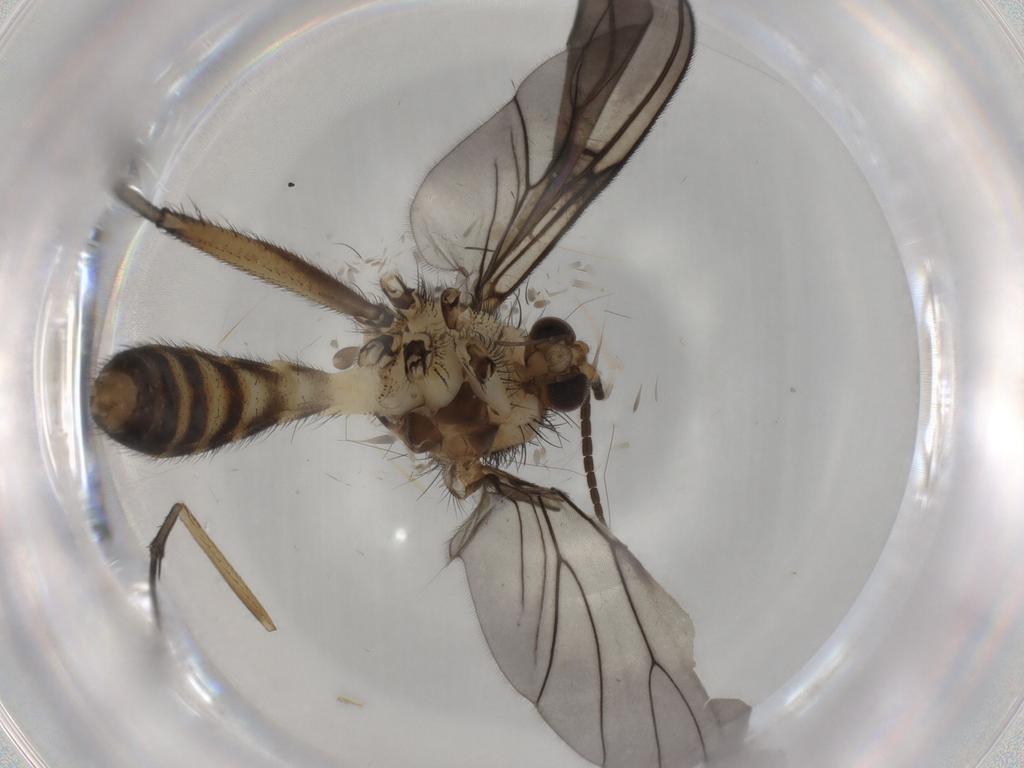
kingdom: Animalia
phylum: Arthropoda
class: Insecta
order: Diptera
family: Mycetophilidae
